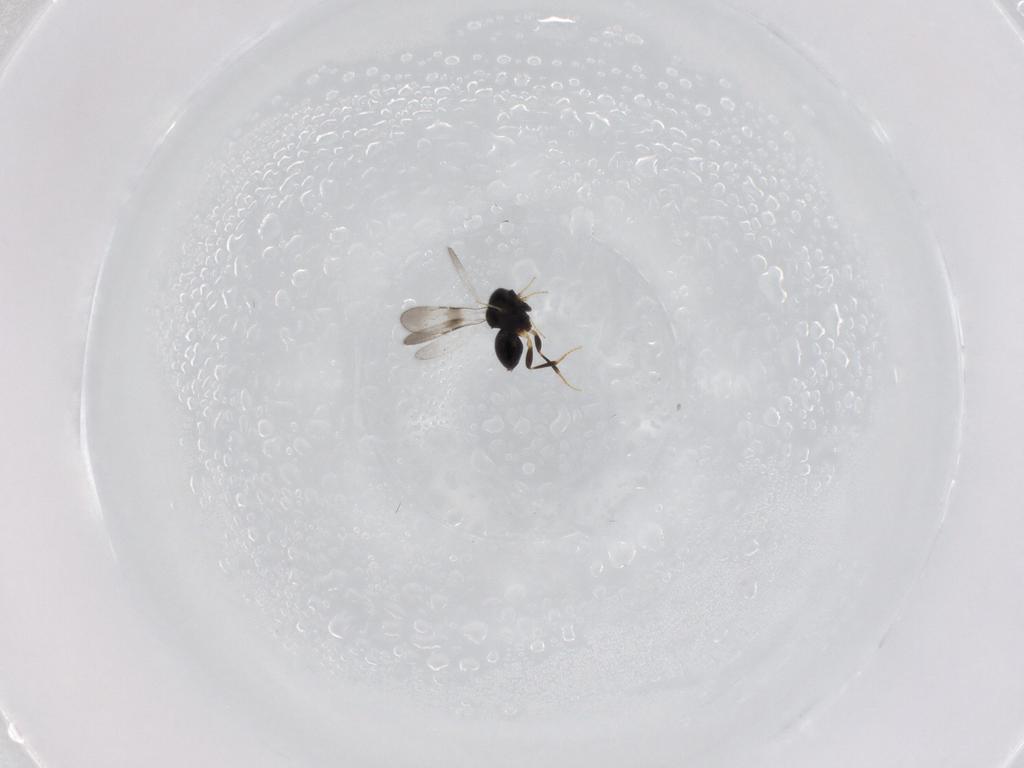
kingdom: Animalia
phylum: Arthropoda
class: Insecta
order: Hymenoptera
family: Ceraphronidae
